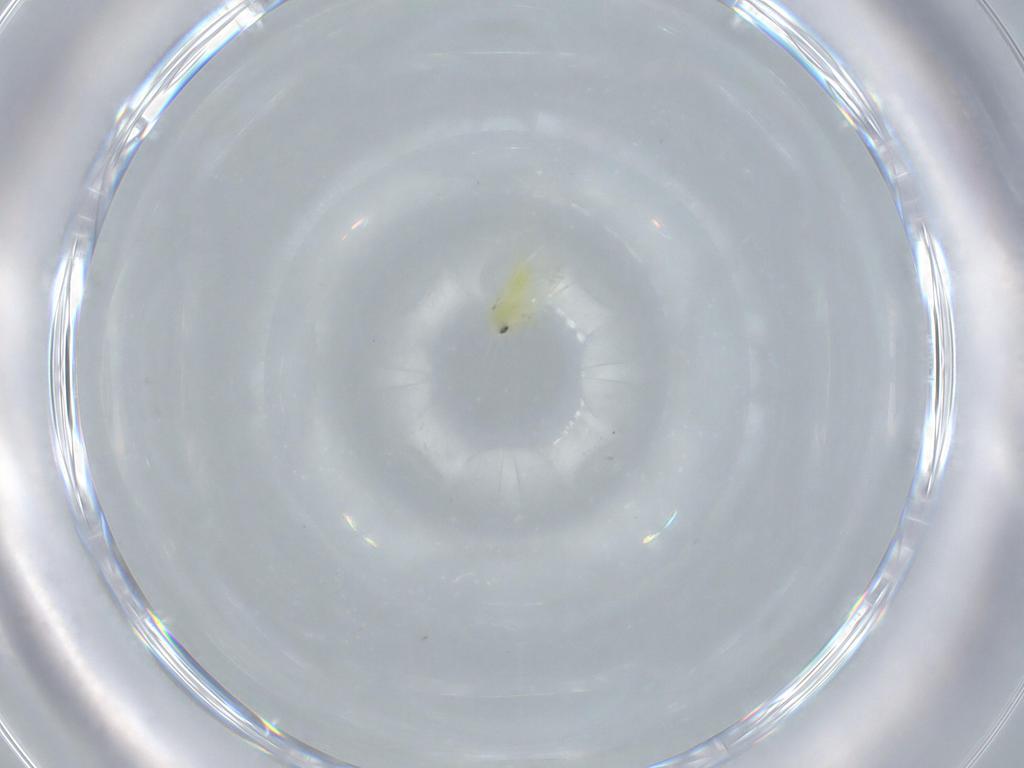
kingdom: Animalia
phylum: Arthropoda
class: Insecta
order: Hemiptera
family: Aleyrodidae
